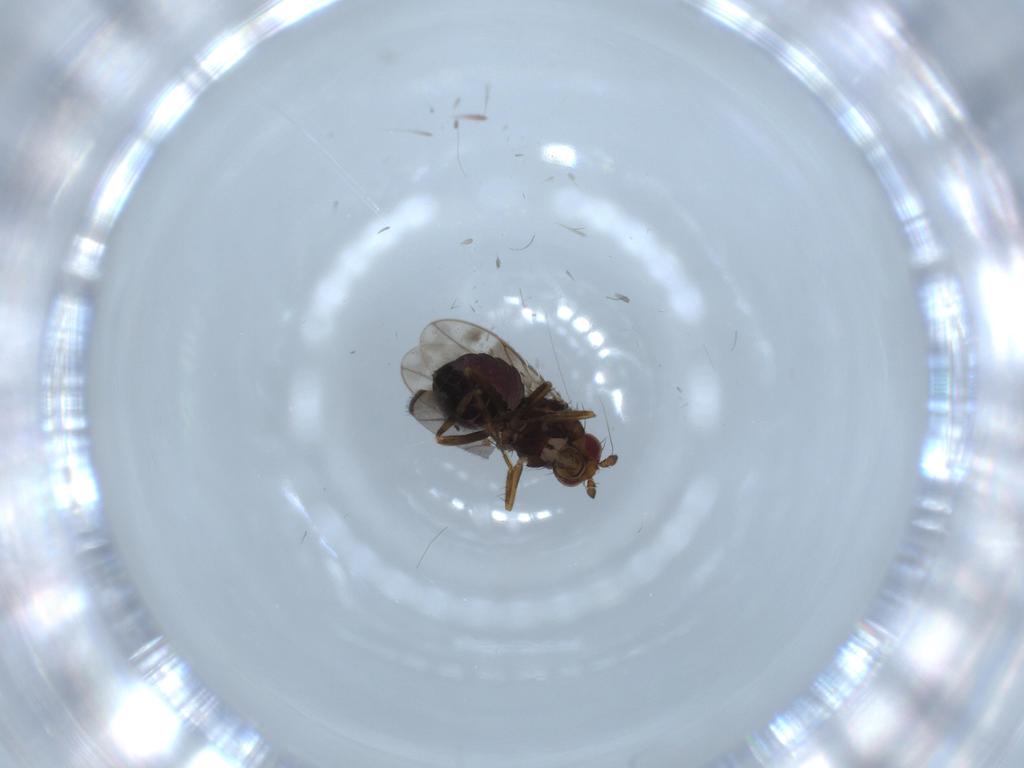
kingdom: Animalia
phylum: Arthropoda
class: Insecta
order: Diptera
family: Sphaeroceridae
